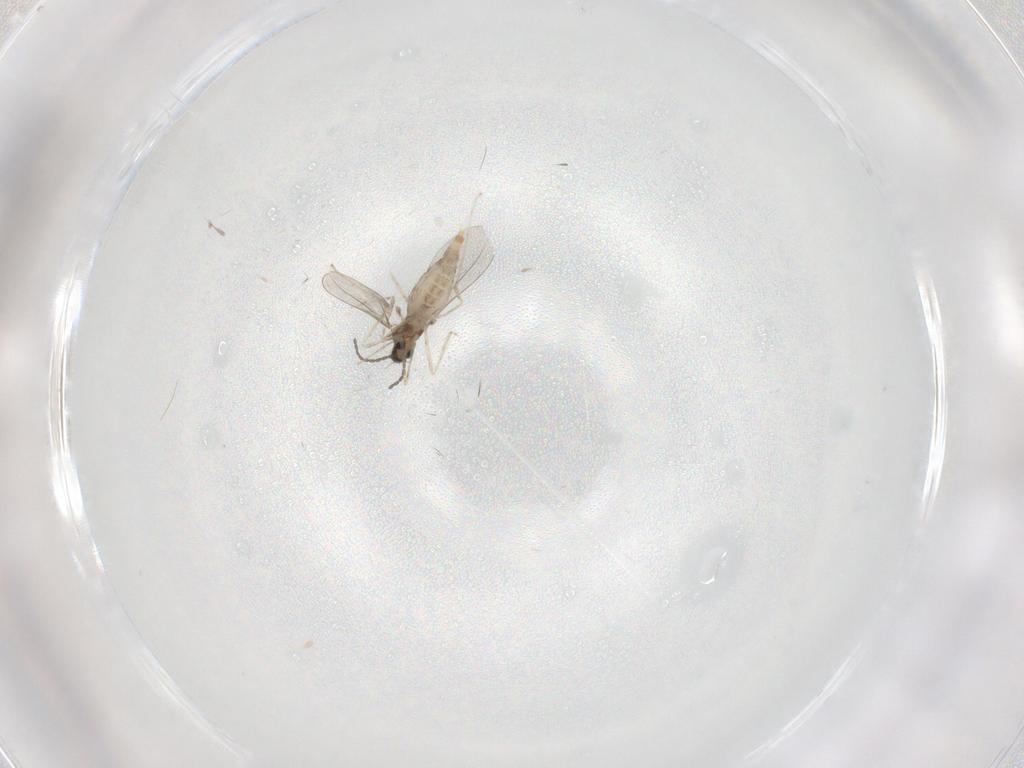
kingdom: Animalia
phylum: Arthropoda
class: Insecta
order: Diptera
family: Cecidomyiidae
